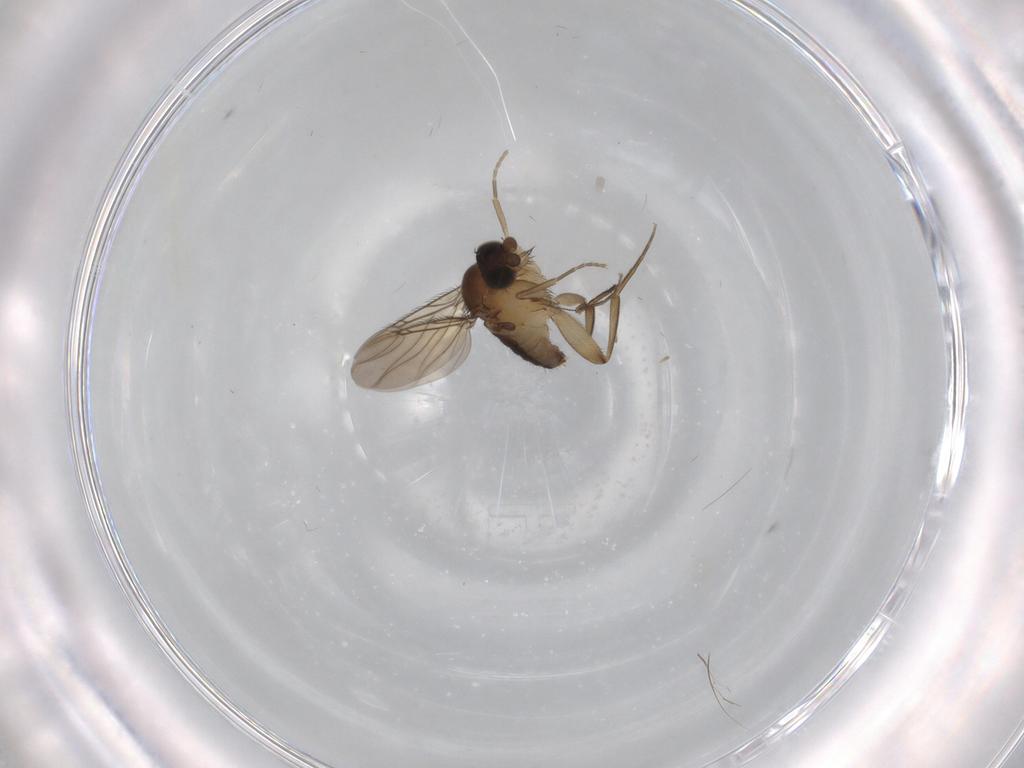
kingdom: Animalia
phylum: Arthropoda
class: Insecta
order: Diptera
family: Phoridae
